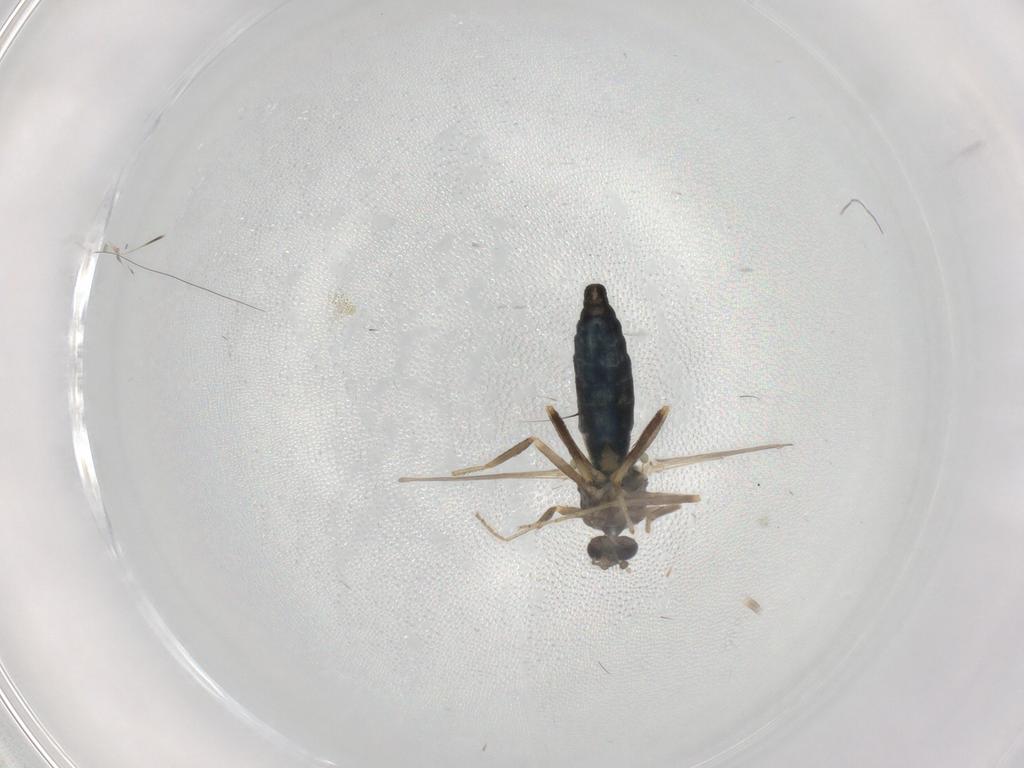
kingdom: Animalia
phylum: Arthropoda
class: Insecta
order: Diptera
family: Ceratopogonidae
